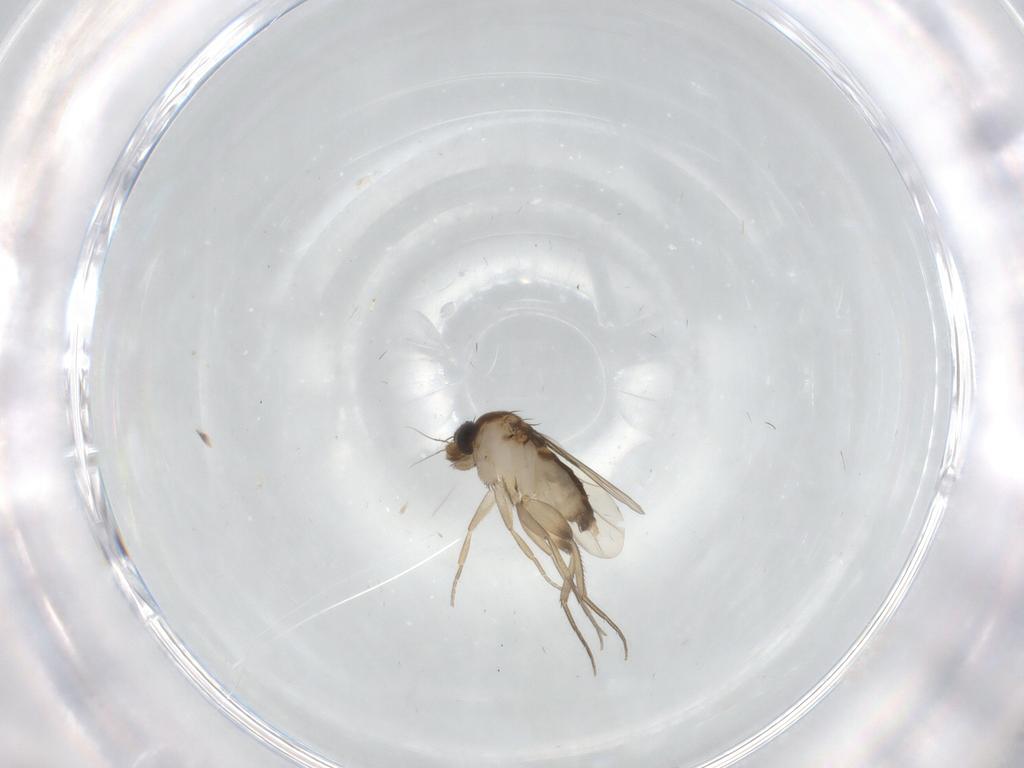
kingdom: Animalia
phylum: Arthropoda
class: Insecta
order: Diptera
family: Phoridae
